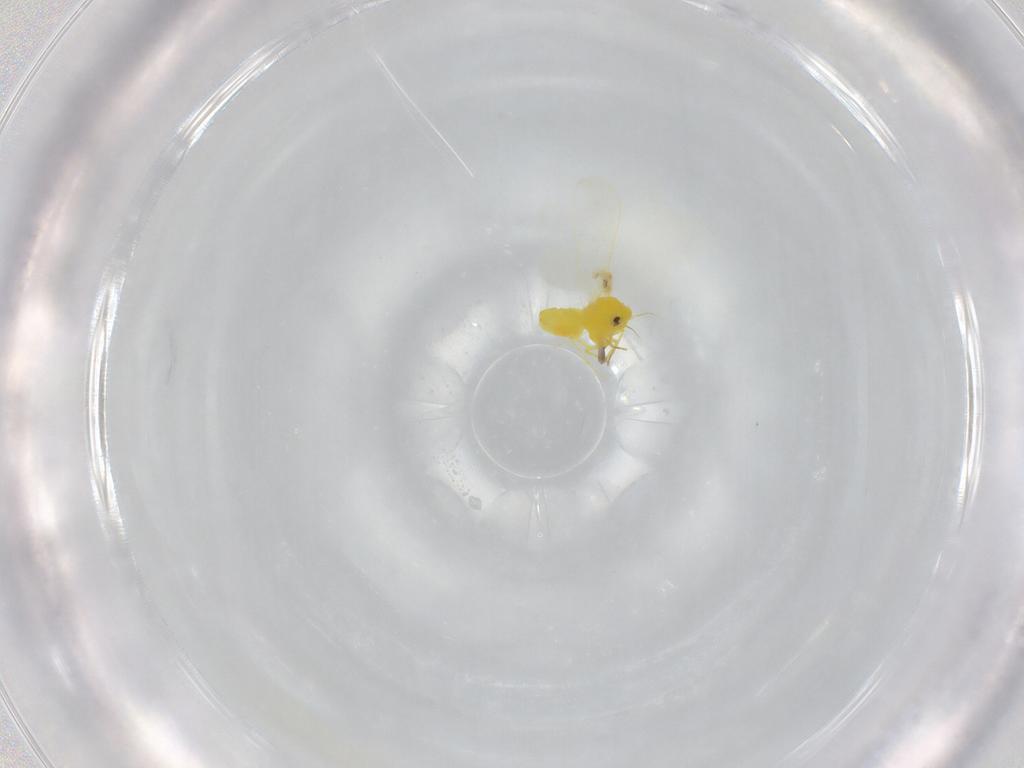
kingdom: Animalia
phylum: Arthropoda
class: Insecta
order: Hemiptera
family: Aleyrodidae
